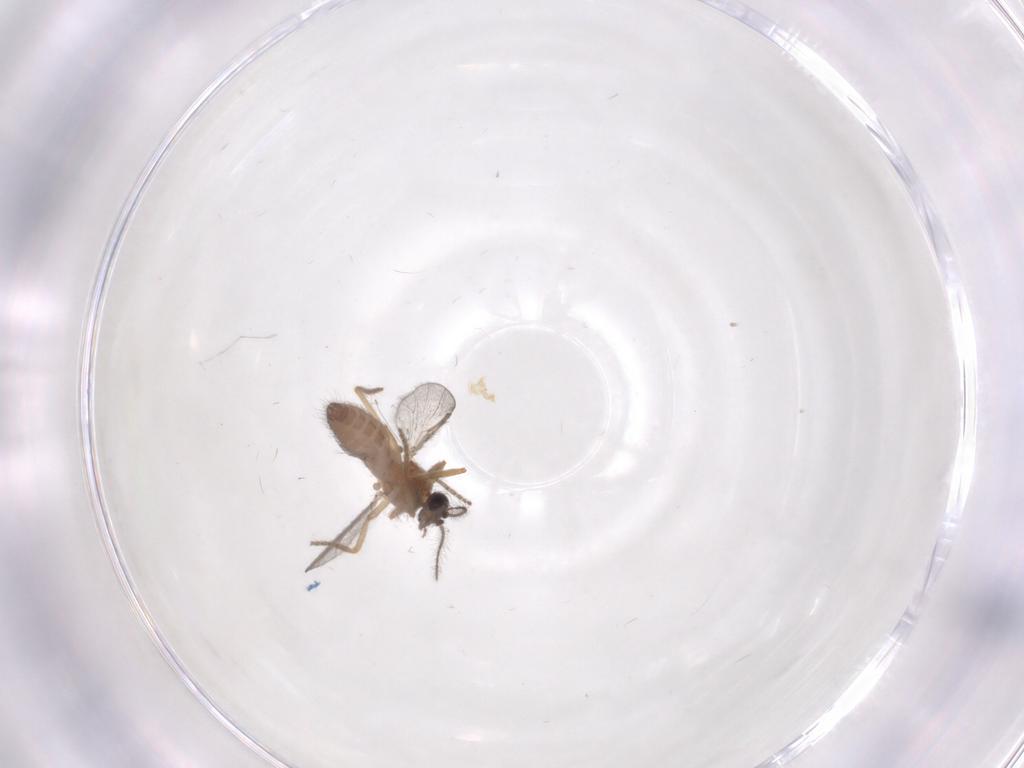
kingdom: Animalia
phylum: Arthropoda
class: Insecta
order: Diptera
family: Ceratopogonidae
